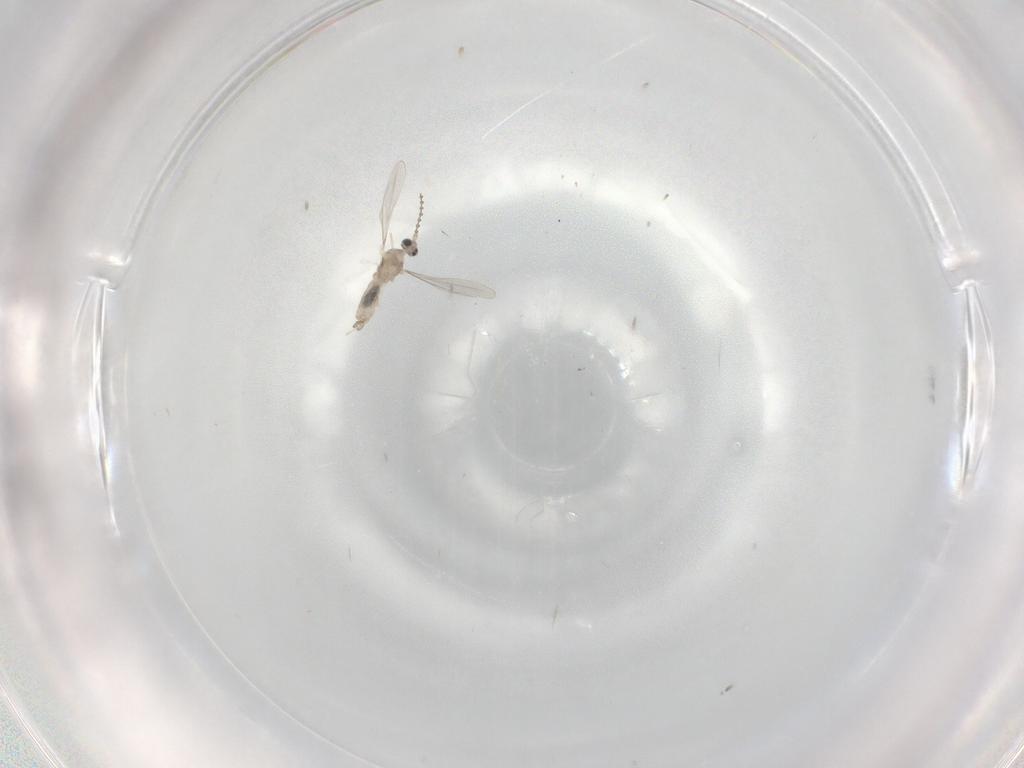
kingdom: Animalia
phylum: Arthropoda
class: Insecta
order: Diptera
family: Cecidomyiidae
